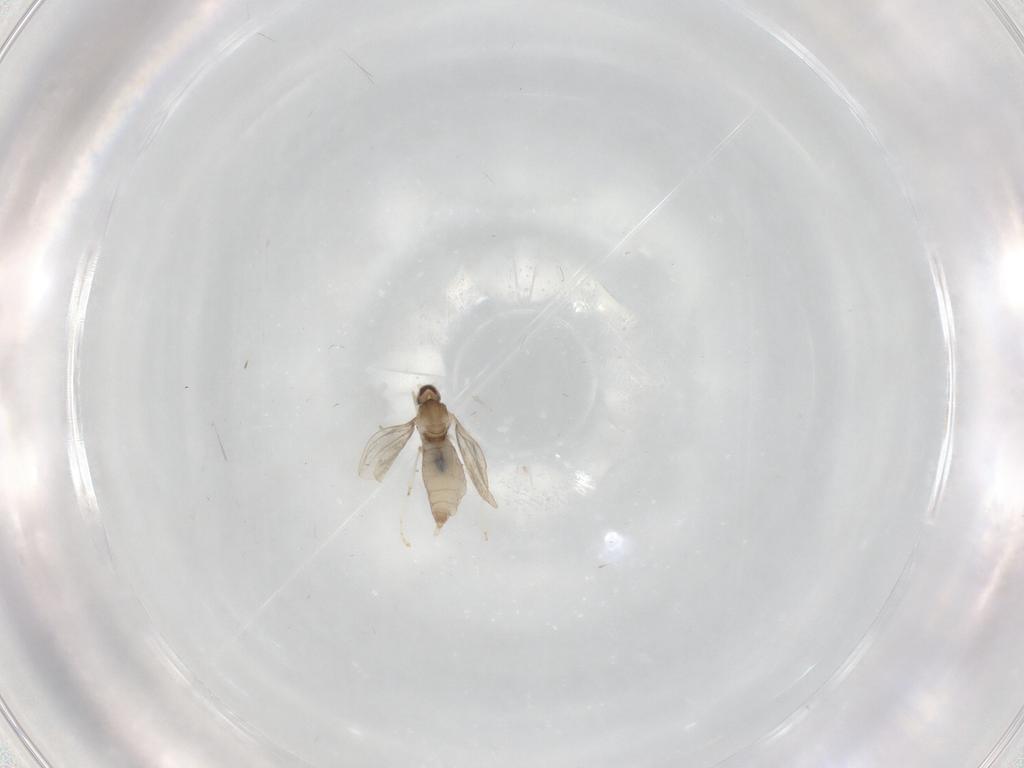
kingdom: Animalia
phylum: Arthropoda
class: Insecta
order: Diptera
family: Cecidomyiidae
